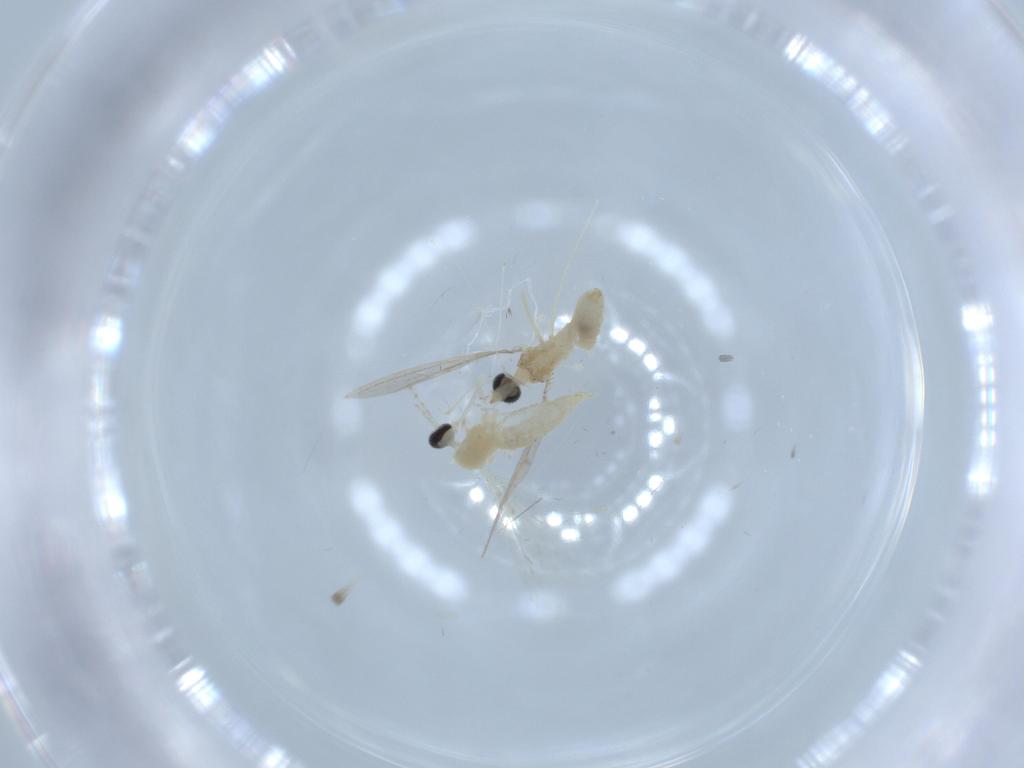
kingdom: Animalia
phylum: Arthropoda
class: Insecta
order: Diptera
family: Cecidomyiidae
